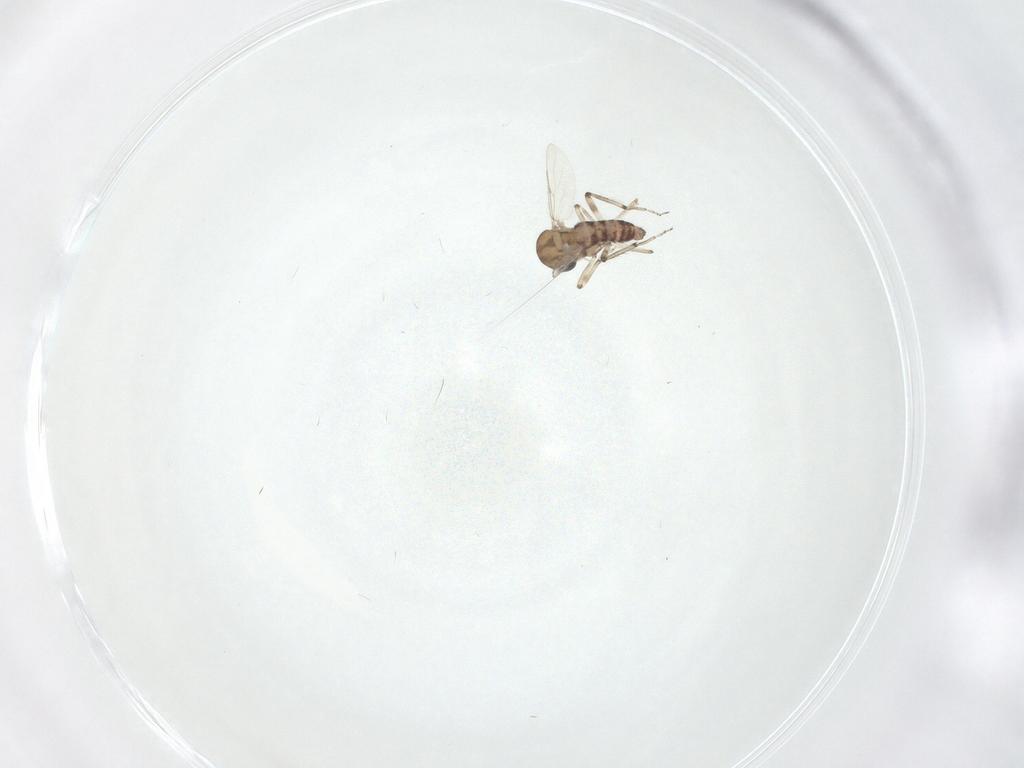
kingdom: Animalia
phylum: Arthropoda
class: Insecta
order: Diptera
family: Ceratopogonidae
